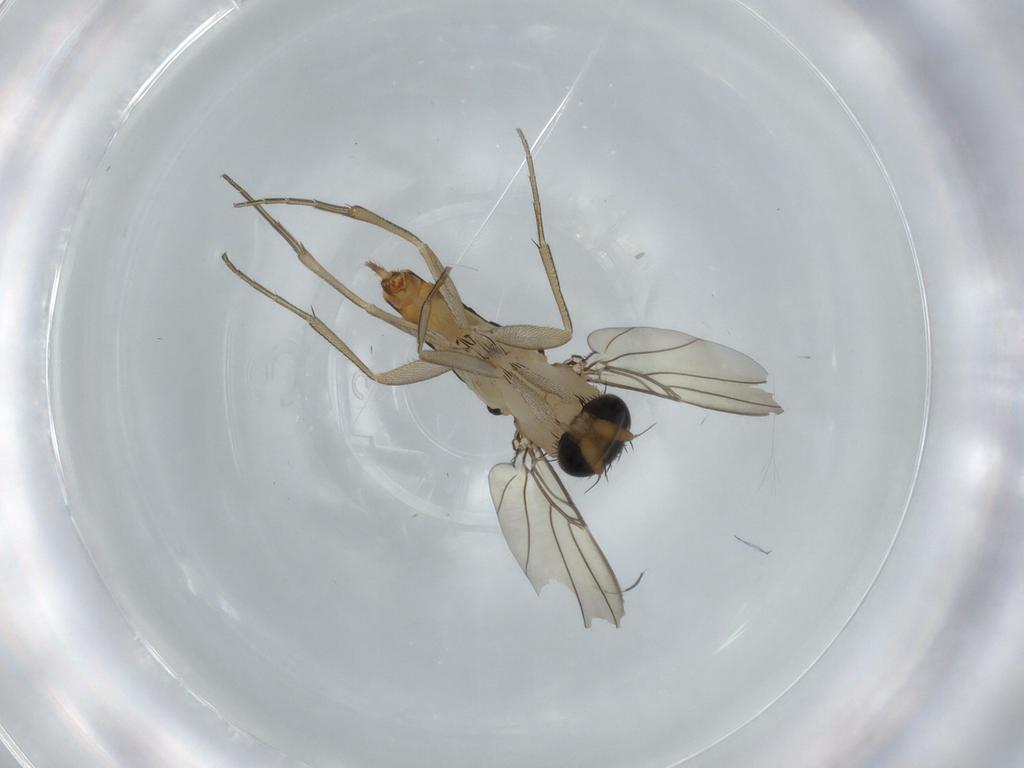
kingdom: Animalia
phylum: Arthropoda
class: Insecta
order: Diptera
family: Phoridae
